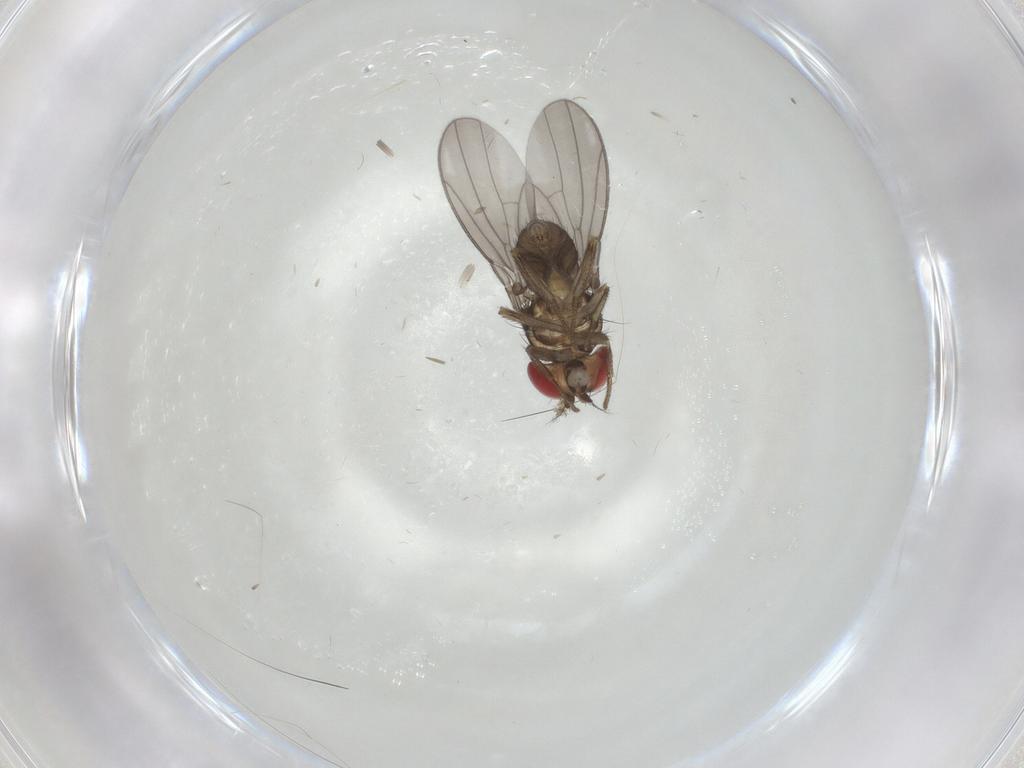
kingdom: Animalia
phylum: Arthropoda
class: Insecta
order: Diptera
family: Drosophilidae
